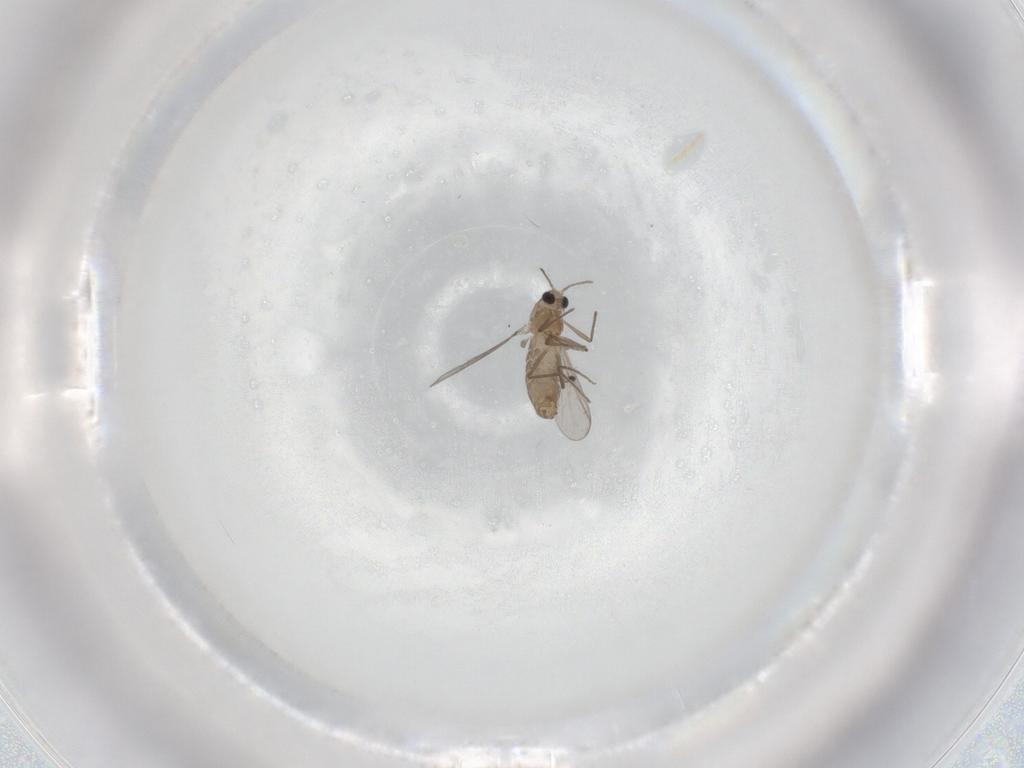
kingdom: Animalia
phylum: Arthropoda
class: Insecta
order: Diptera
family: Chironomidae
